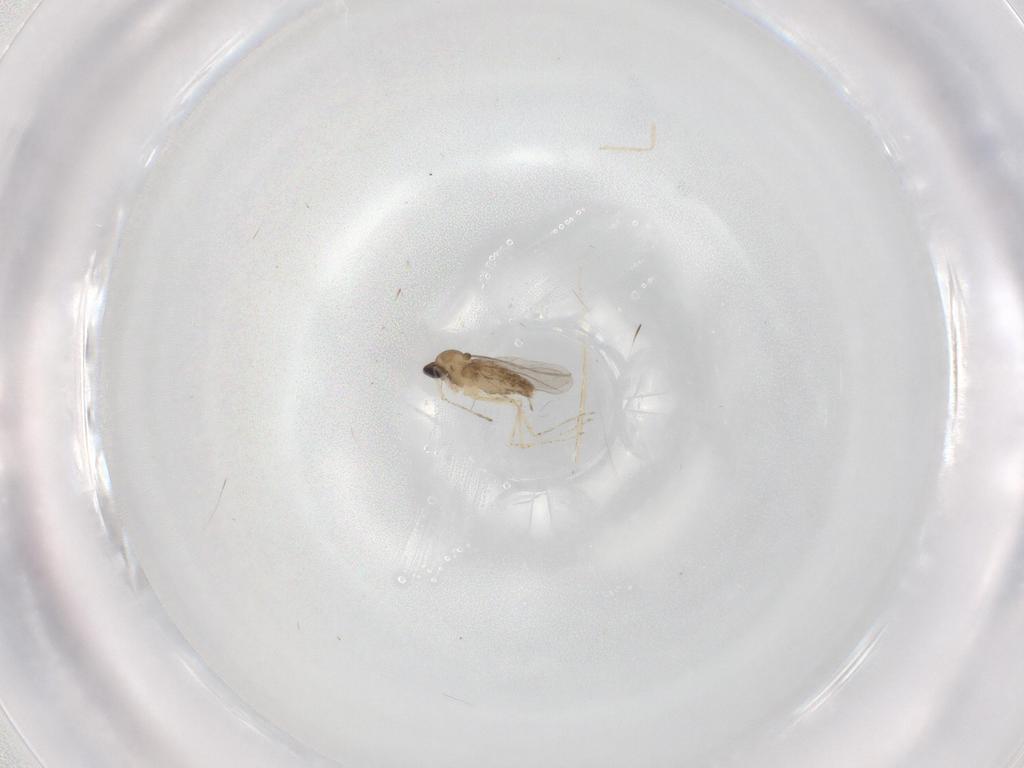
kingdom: Animalia
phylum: Arthropoda
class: Insecta
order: Diptera
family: Cecidomyiidae
